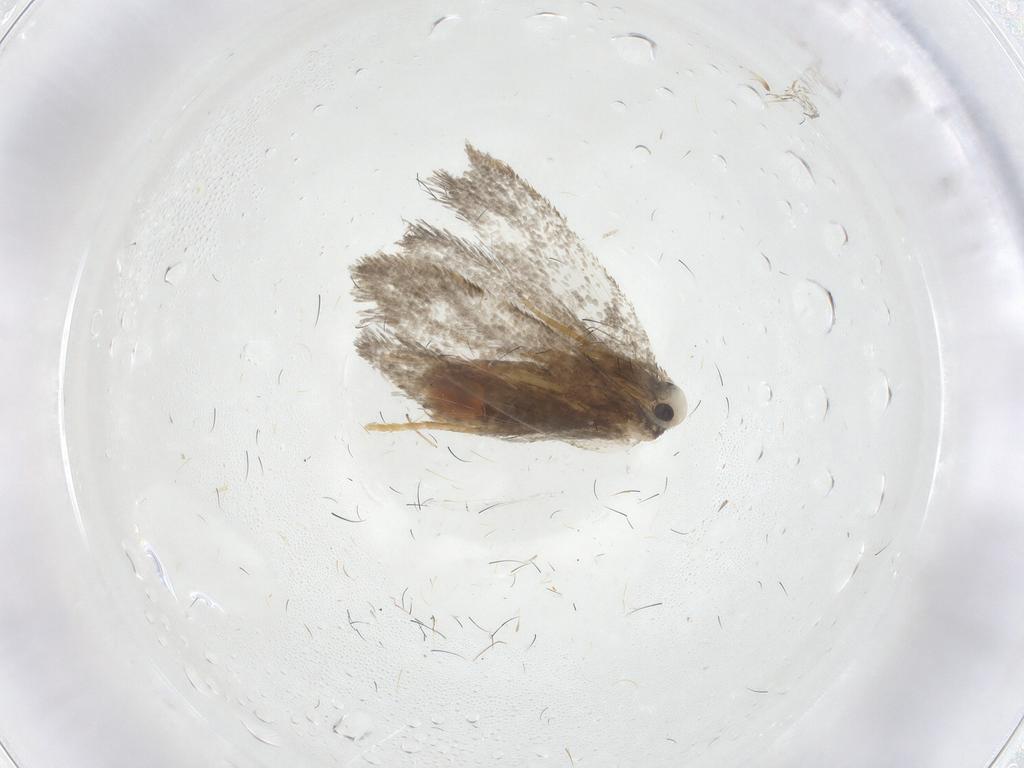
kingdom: Animalia
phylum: Arthropoda
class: Insecta
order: Lepidoptera
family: Psychidae
